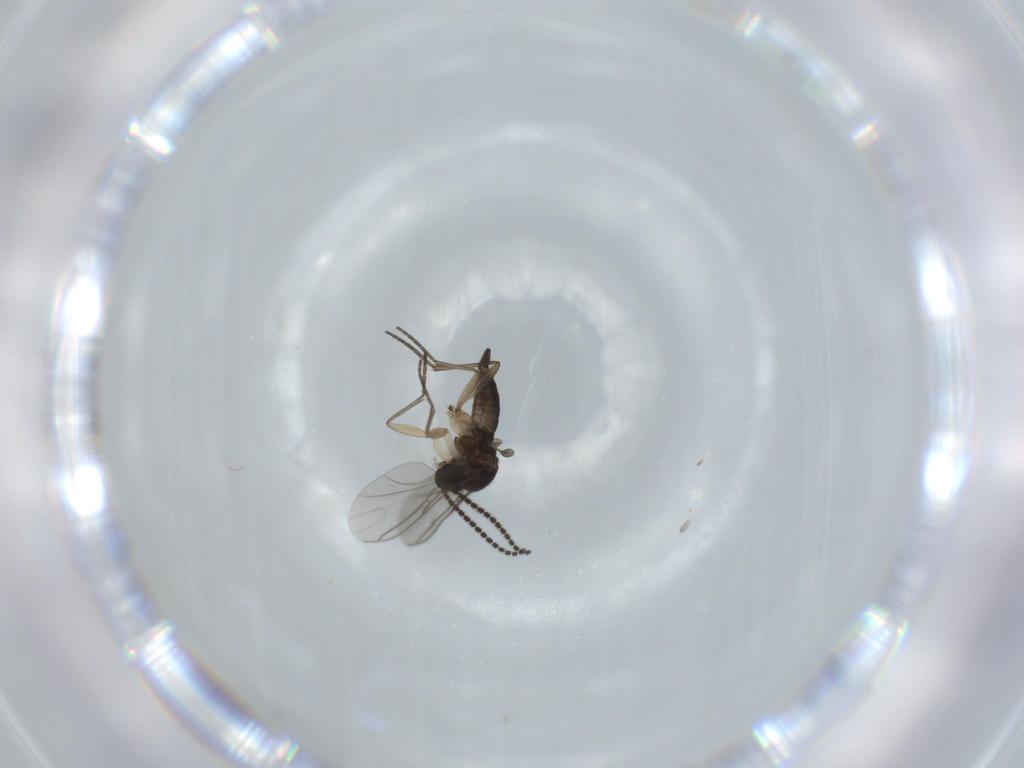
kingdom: Animalia
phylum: Arthropoda
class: Insecta
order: Diptera
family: Sciaridae
